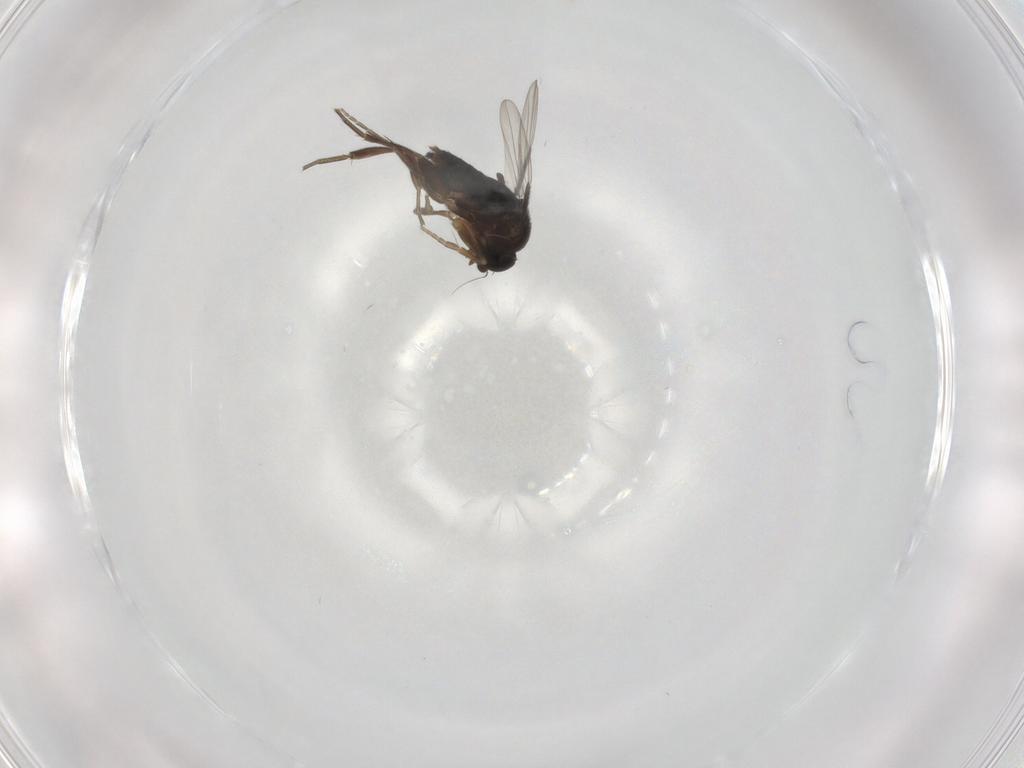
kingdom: Animalia
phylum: Arthropoda
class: Insecta
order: Diptera
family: Phoridae
